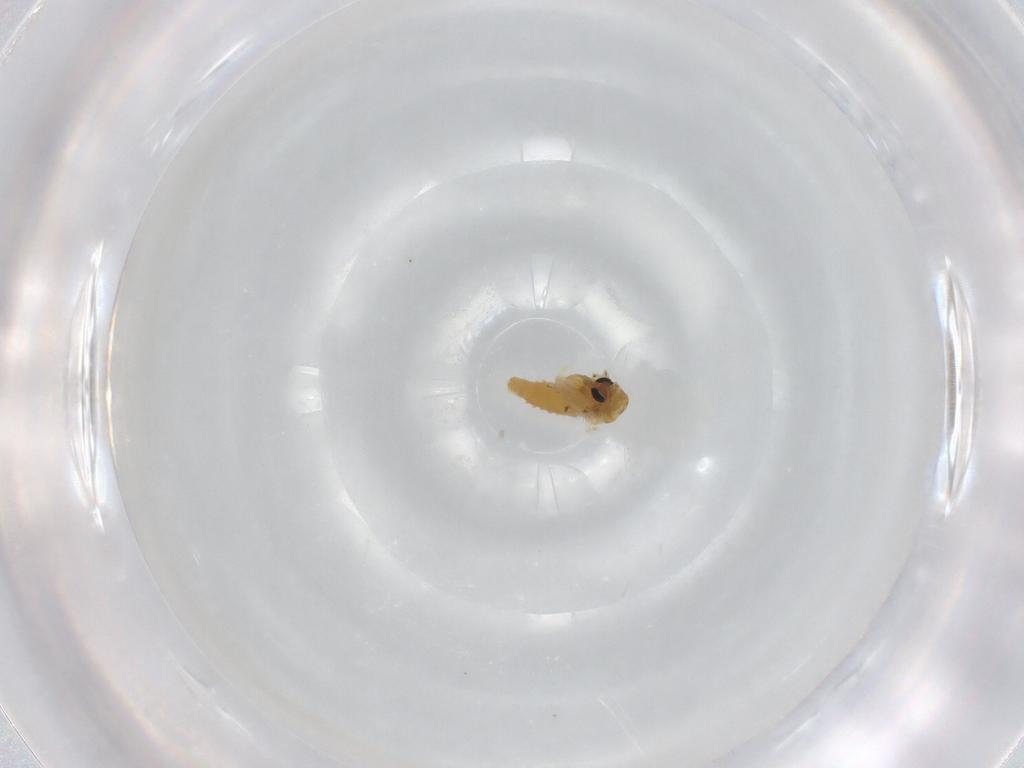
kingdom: Animalia
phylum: Arthropoda
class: Insecta
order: Diptera
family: Chironomidae
